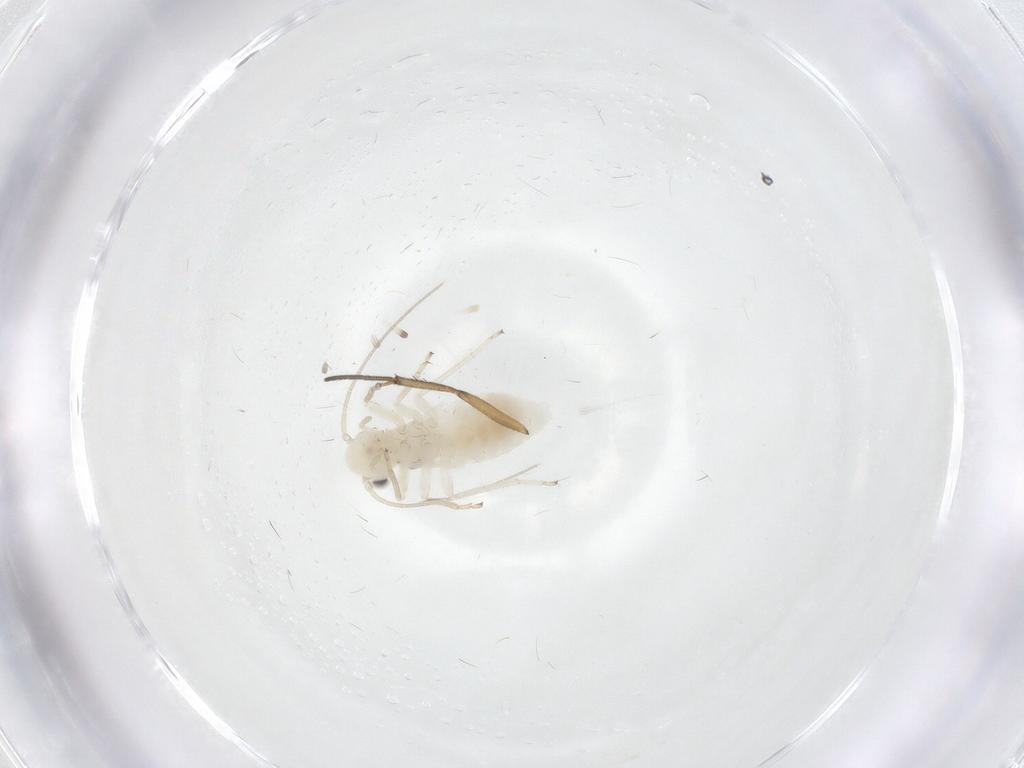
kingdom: Animalia
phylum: Arthropoda
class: Insecta
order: Psocodea
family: Caeciliusidae
